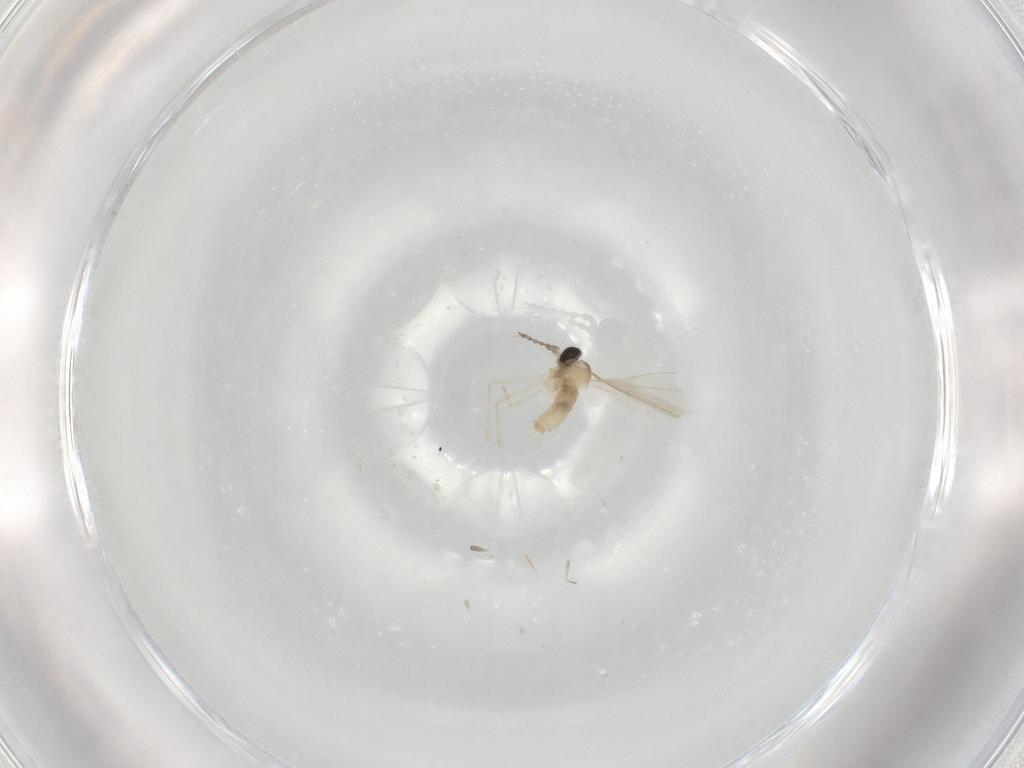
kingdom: Animalia
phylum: Arthropoda
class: Insecta
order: Diptera
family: Cecidomyiidae
